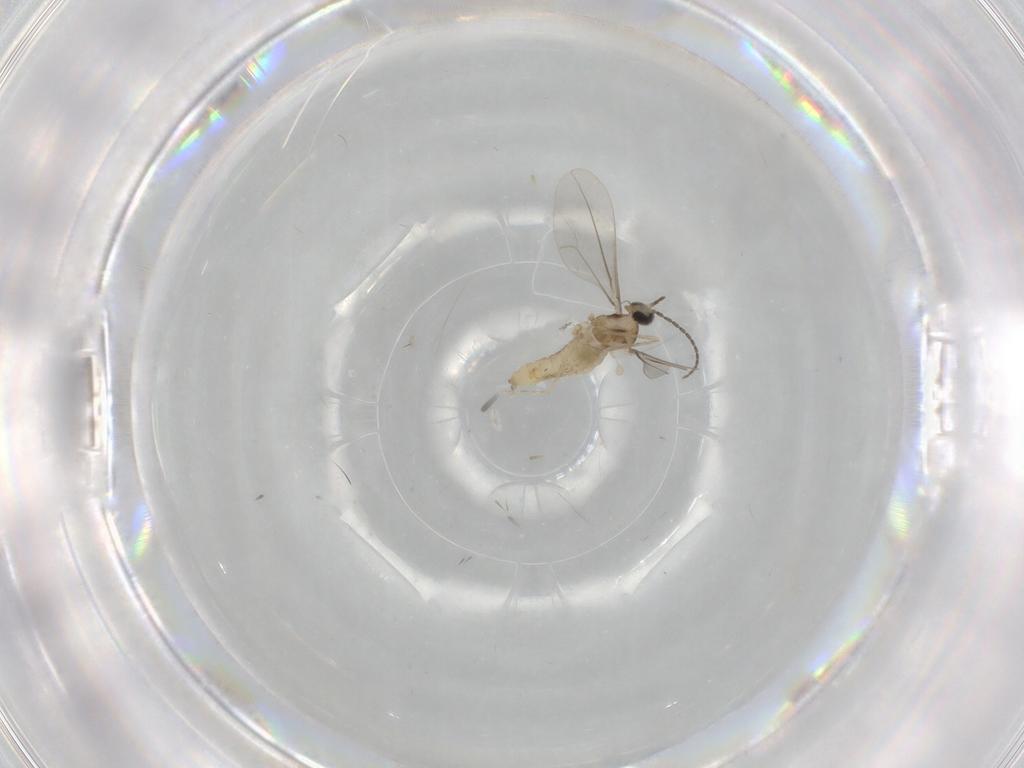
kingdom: Animalia
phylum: Arthropoda
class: Insecta
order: Diptera
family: Cecidomyiidae
